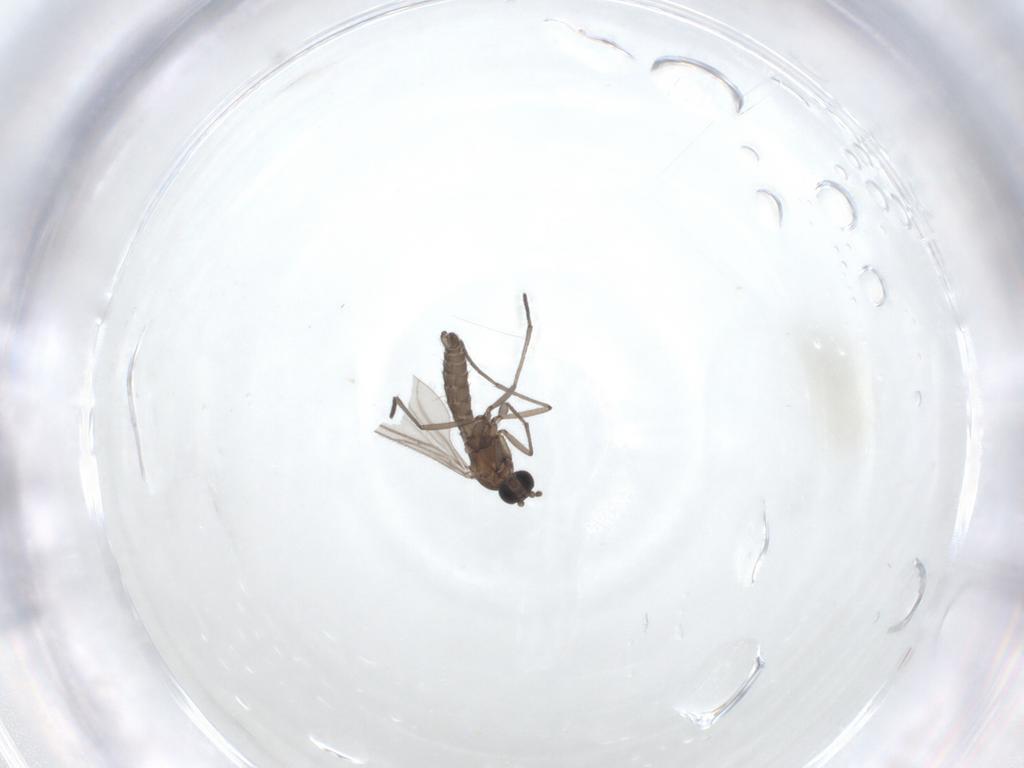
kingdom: Animalia
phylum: Arthropoda
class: Insecta
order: Diptera
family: Sciaridae
